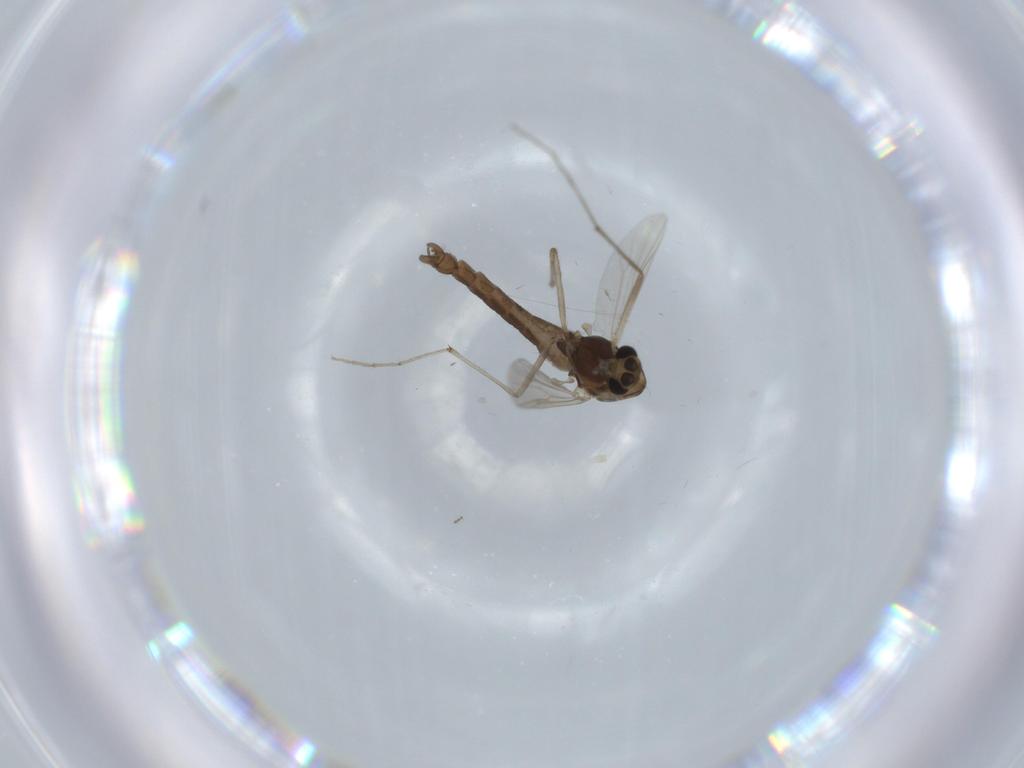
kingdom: Animalia
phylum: Arthropoda
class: Insecta
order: Diptera
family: Chironomidae
